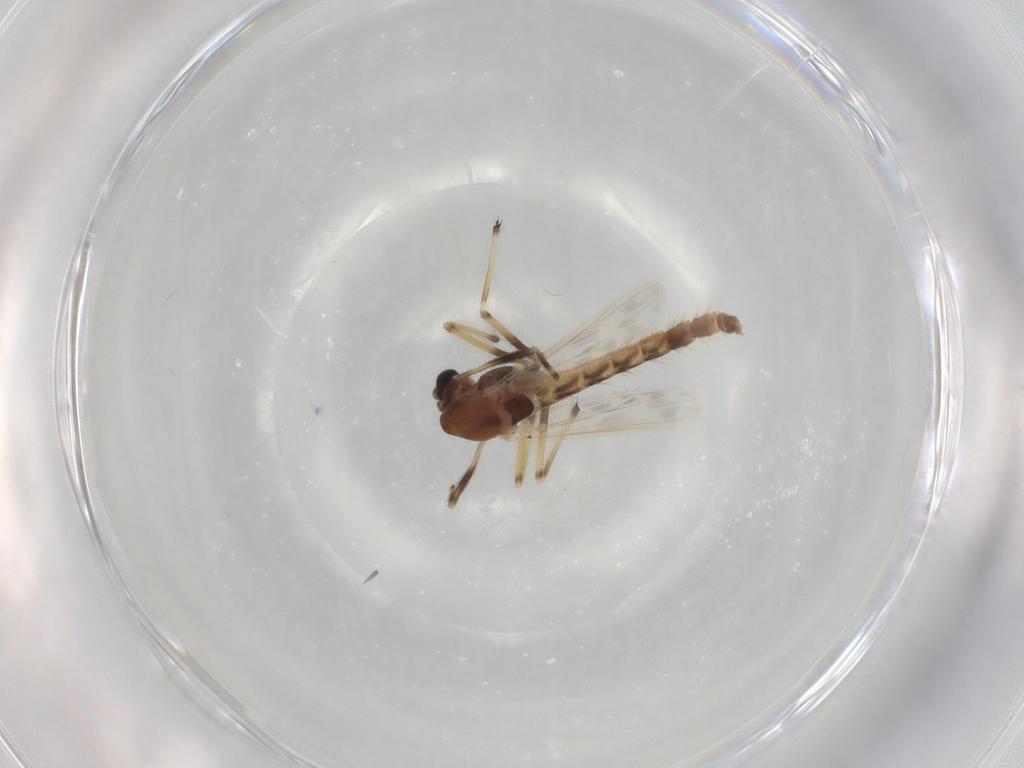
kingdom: Animalia
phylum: Arthropoda
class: Insecta
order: Diptera
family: Chironomidae
